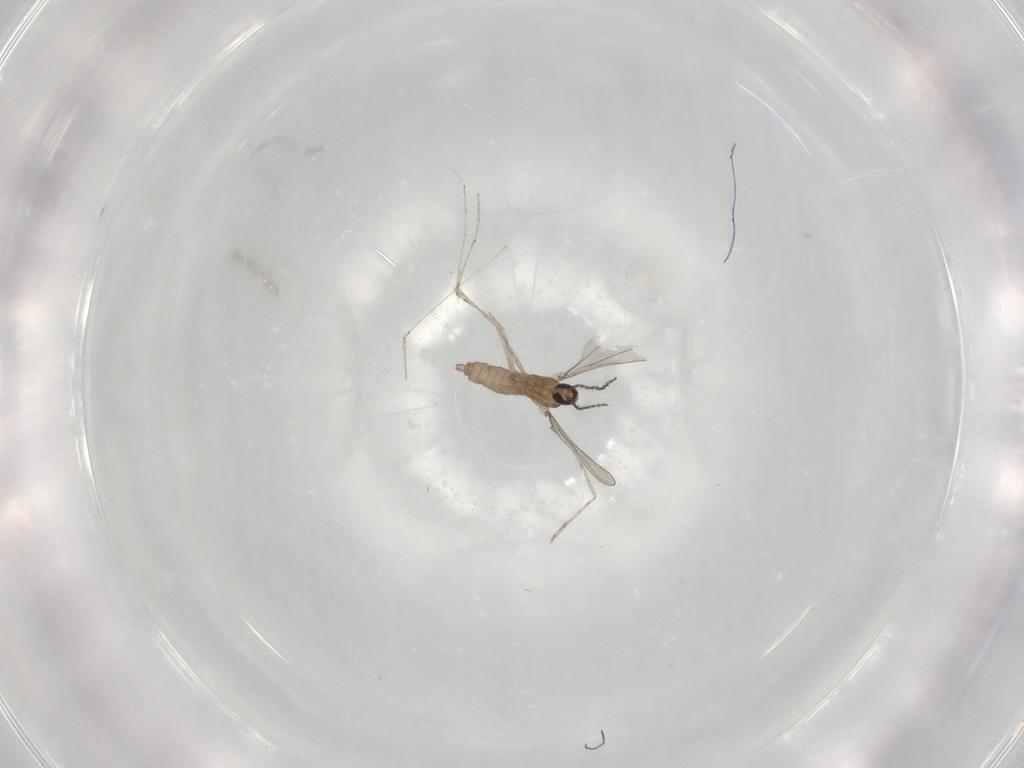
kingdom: Animalia
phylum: Arthropoda
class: Insecta
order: Diptera
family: Cecidomyiidae
